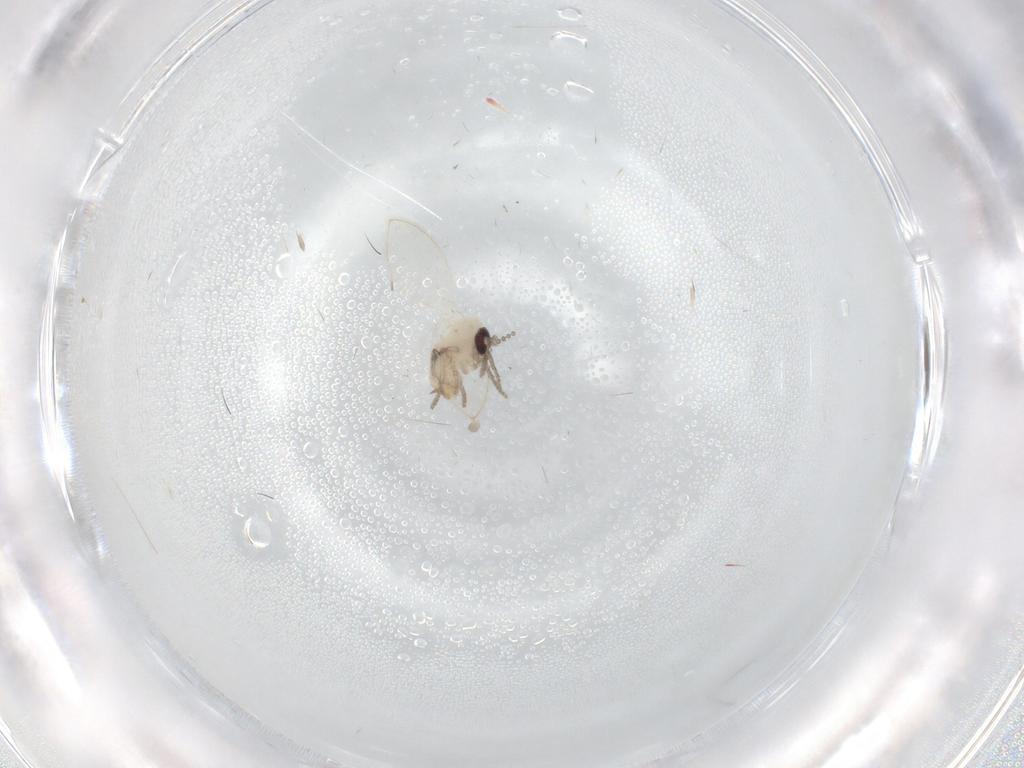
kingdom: Animalia
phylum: Arthropoda
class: Insecta
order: Diptera
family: Psychodidae
